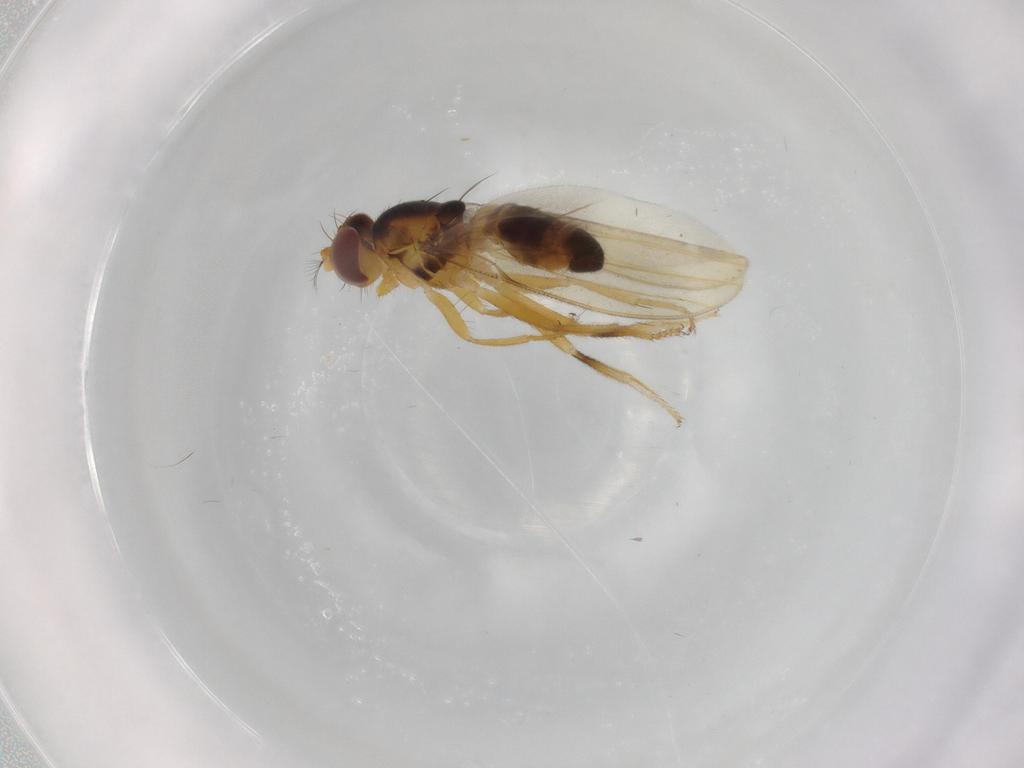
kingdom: Animalia
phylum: Arthropoda
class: Insecta
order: Diptera
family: Periscelididae
